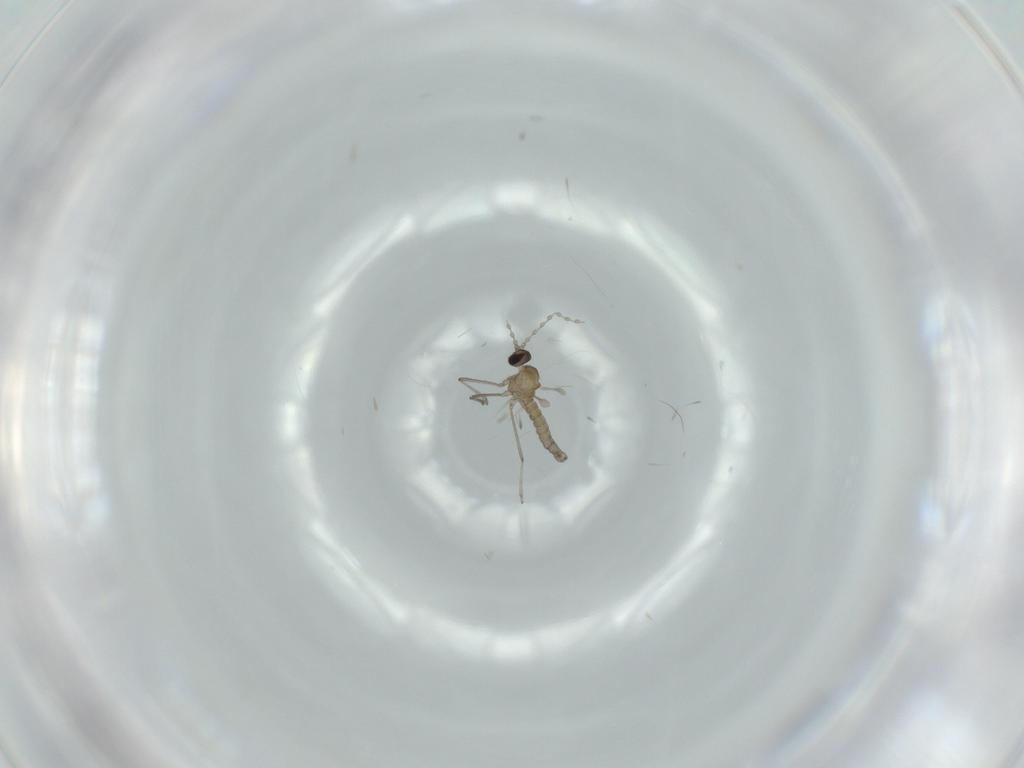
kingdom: Animalia
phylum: Arthropoda
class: Insecta
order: Diptera
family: Cecidomyiidae
